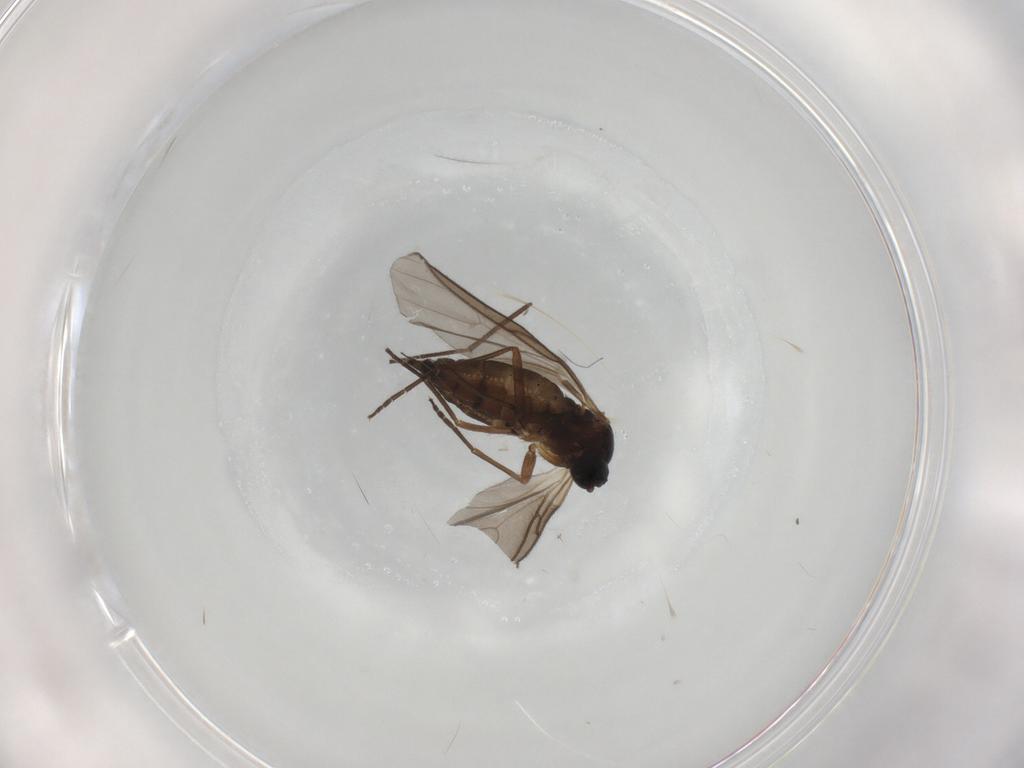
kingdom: Animalia
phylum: Arthropoda
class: Insecta
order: Diptera
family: Sciaridae
